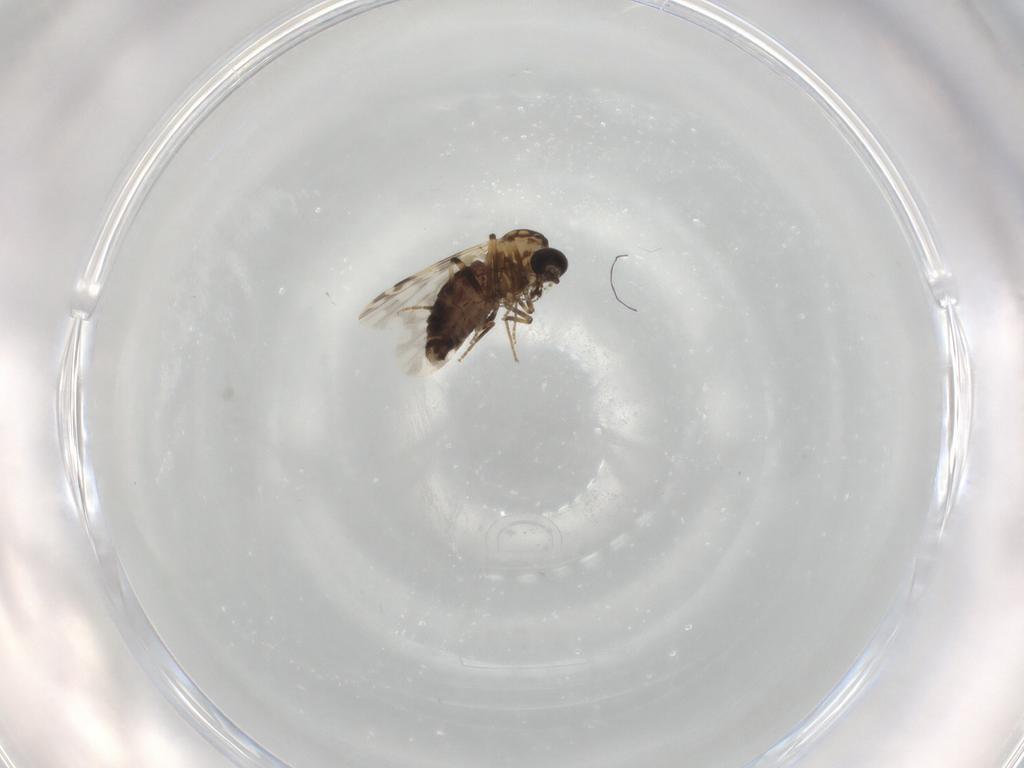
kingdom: Animalia
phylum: Arthropoda
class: Insecta
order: Diptera
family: Ceratopogonidae
